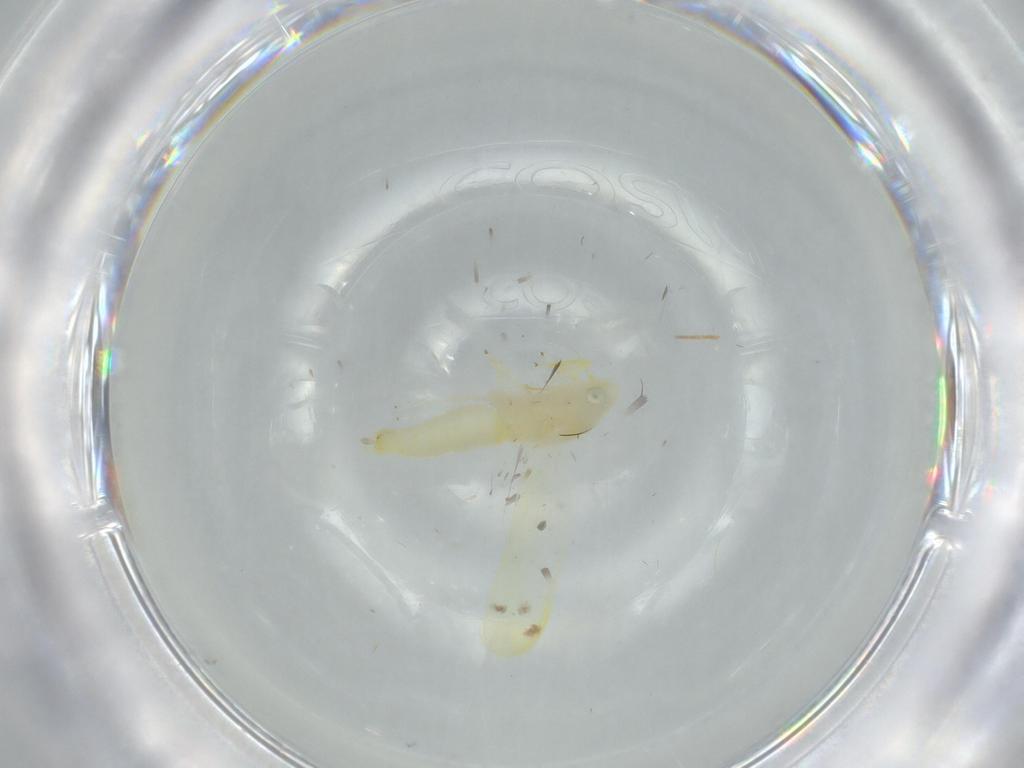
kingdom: Animalia
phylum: Arthropoda
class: Insecta
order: Hemiptera
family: Cicadellidae
